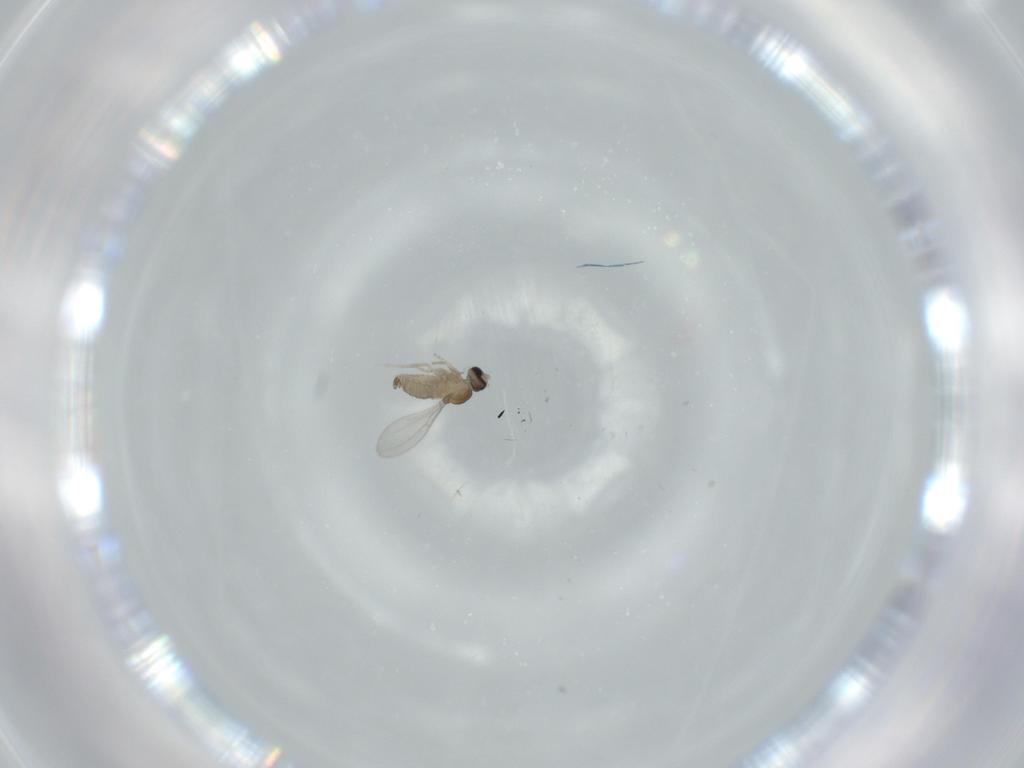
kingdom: Animalia
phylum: Arthropoda
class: Insecta
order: Diptera
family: Cecidomyiidae
